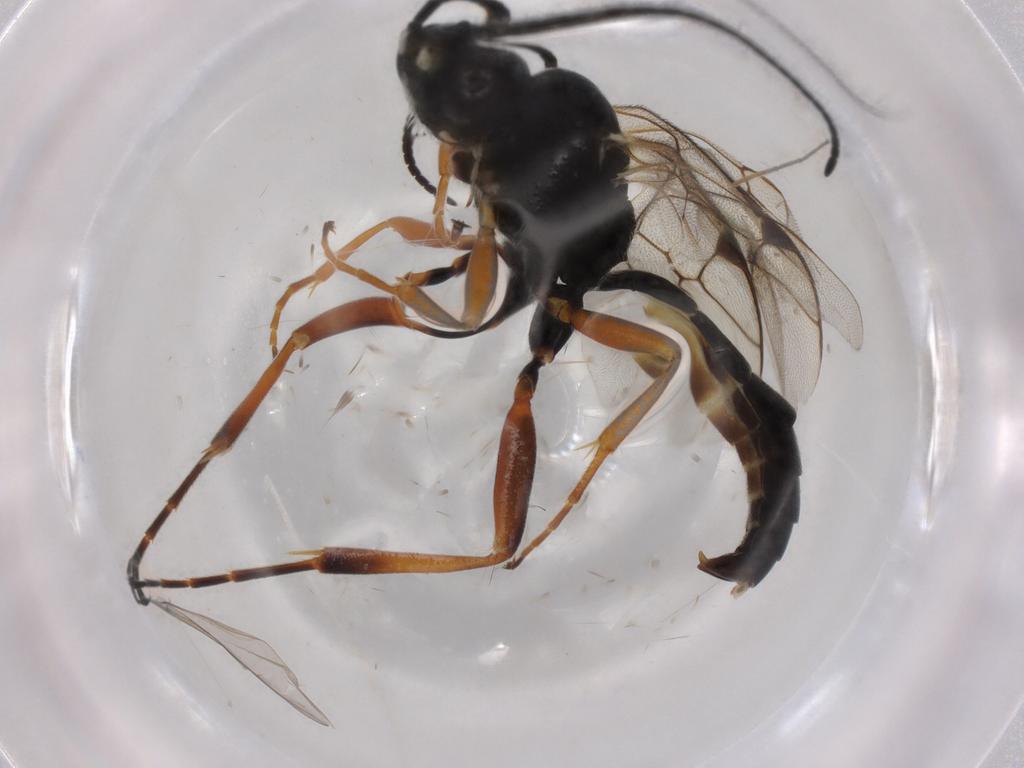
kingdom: Animalia
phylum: Arthropoda
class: Insecta
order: Hymenoptera
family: Ichneumonidae
